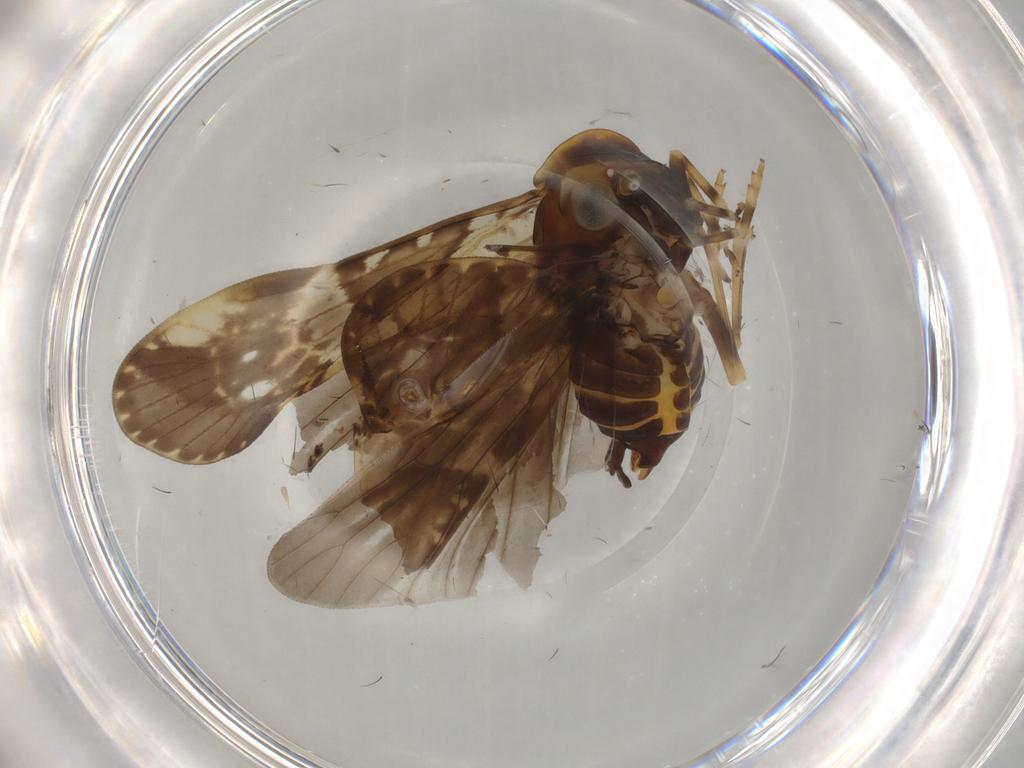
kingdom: Animalia
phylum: Arthropoda
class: Insecta
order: Hemiptera
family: Cixiidae
